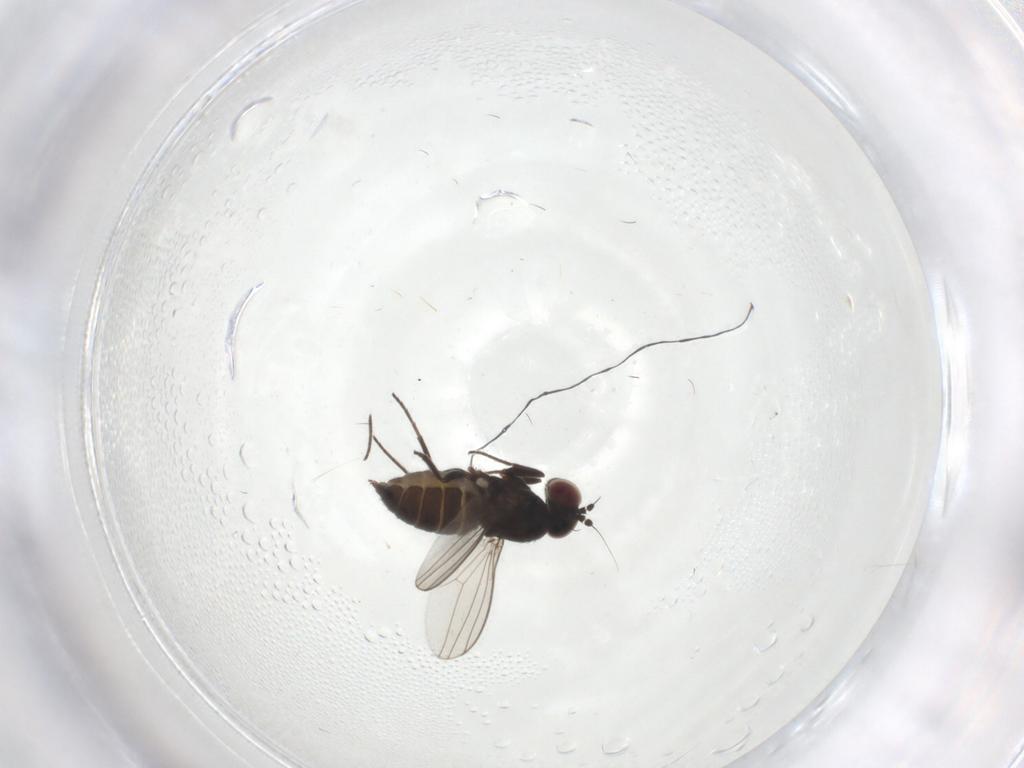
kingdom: Animalia
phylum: Arthropoda
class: Insecta
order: Diptera
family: Dolichopodidae
